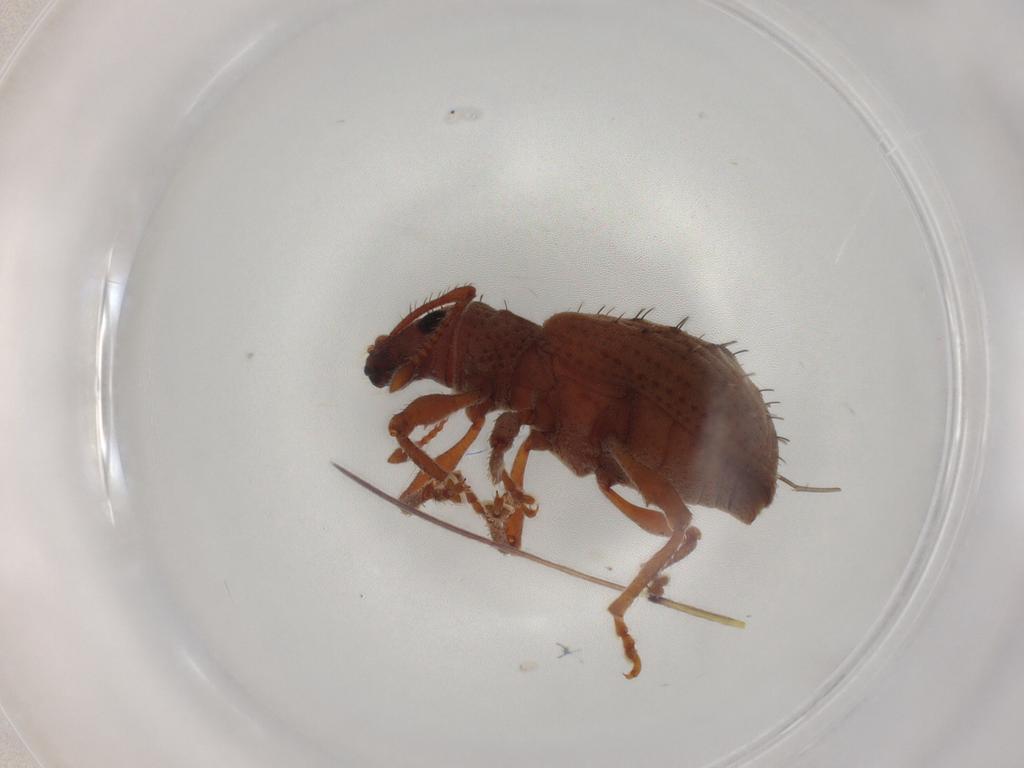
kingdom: Animalia
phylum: Arthropoda
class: Insecta
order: Coleoptera
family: Curculionidae
